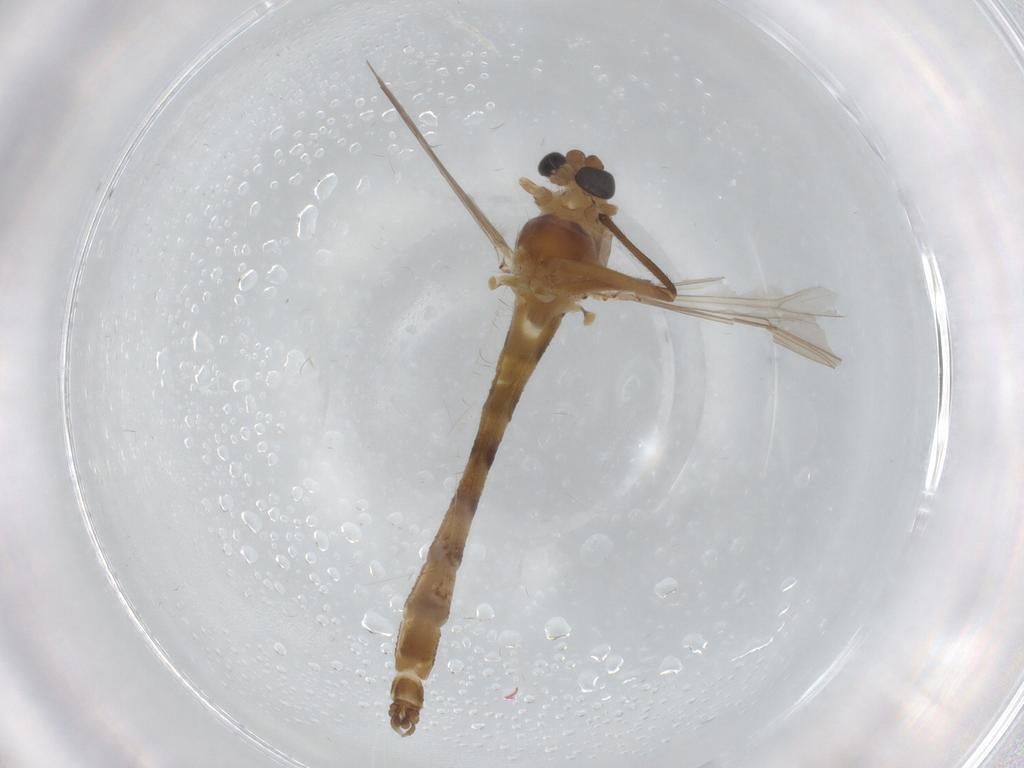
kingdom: Animalia
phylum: Arthropoda
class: Insecta
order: Diptera
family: Chironomidae
